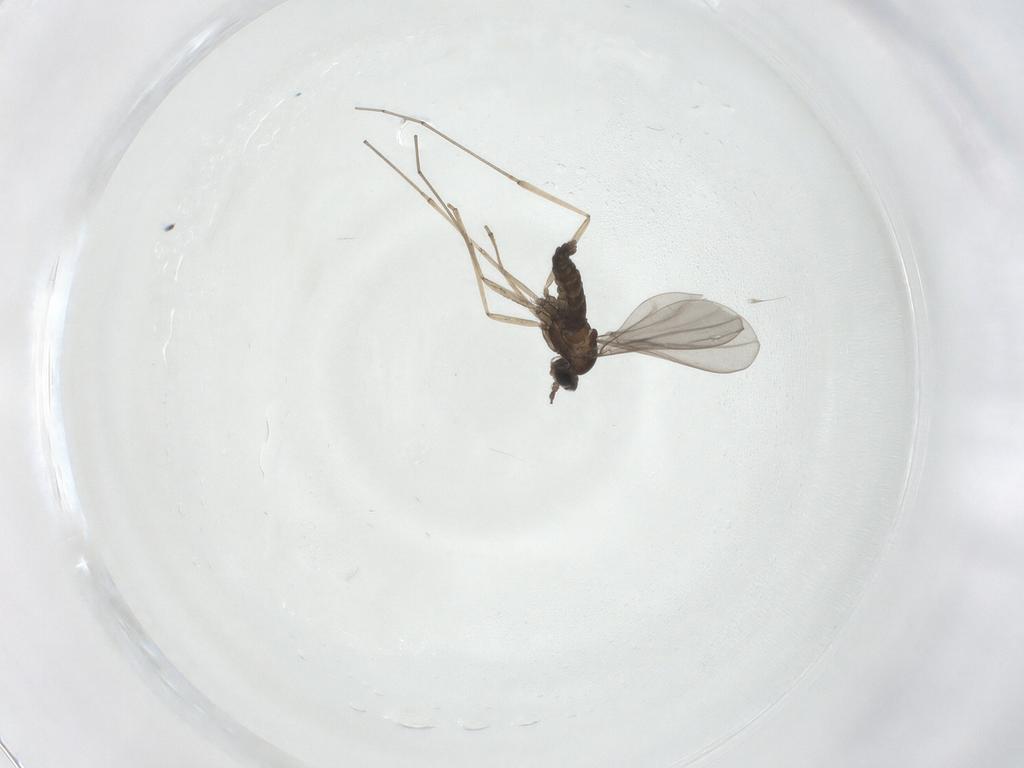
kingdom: Animalia
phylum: Arthropoda
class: Insecta
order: Diptera
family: Cecidomyiidae
